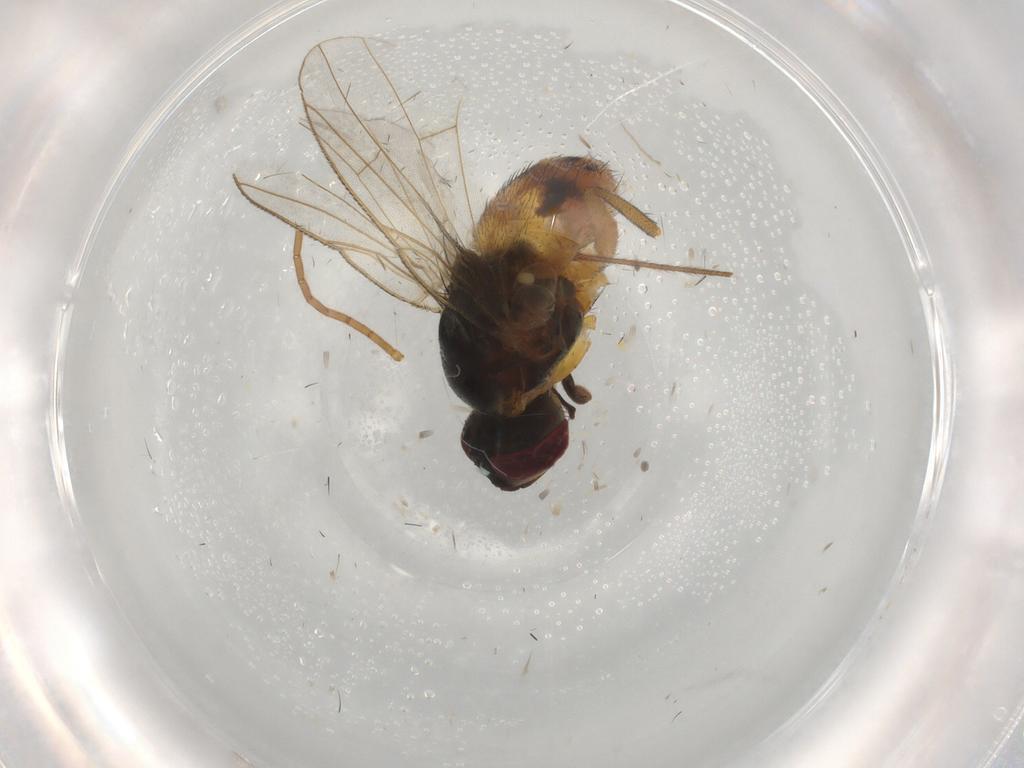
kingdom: Animalia
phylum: Arthropoda
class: Insecta
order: Diptera
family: Muscidae
